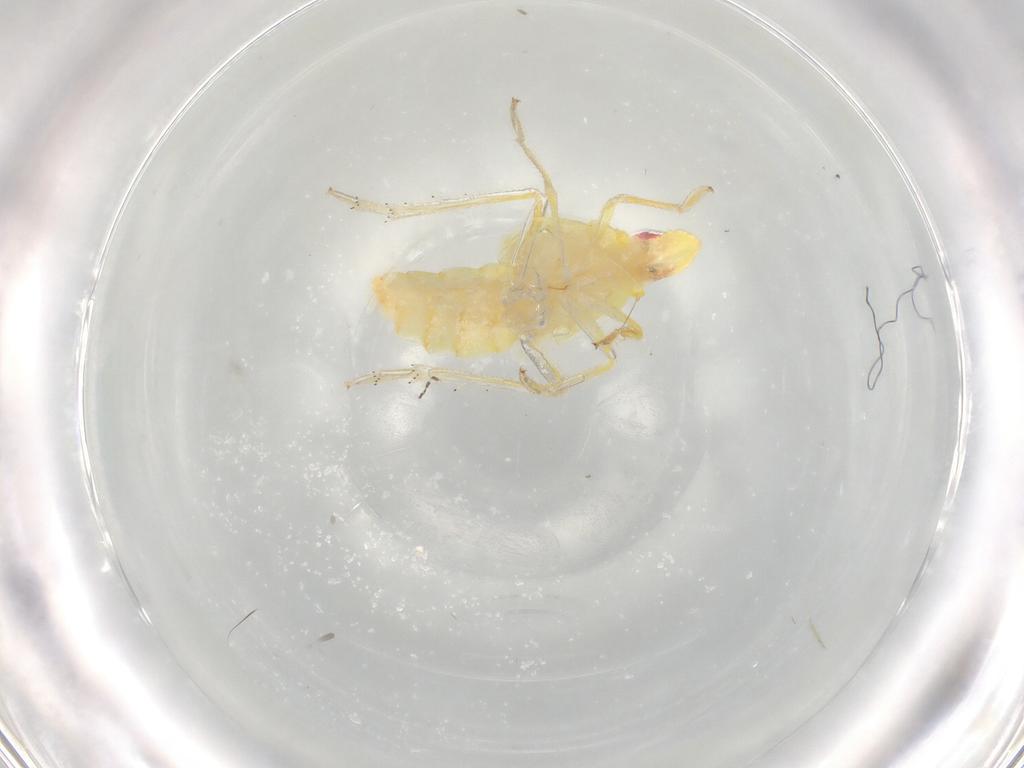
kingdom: Animalia
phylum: Arthropoda
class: Insecta
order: Hemiptera
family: Fulgoroidea_incertae_sedis
